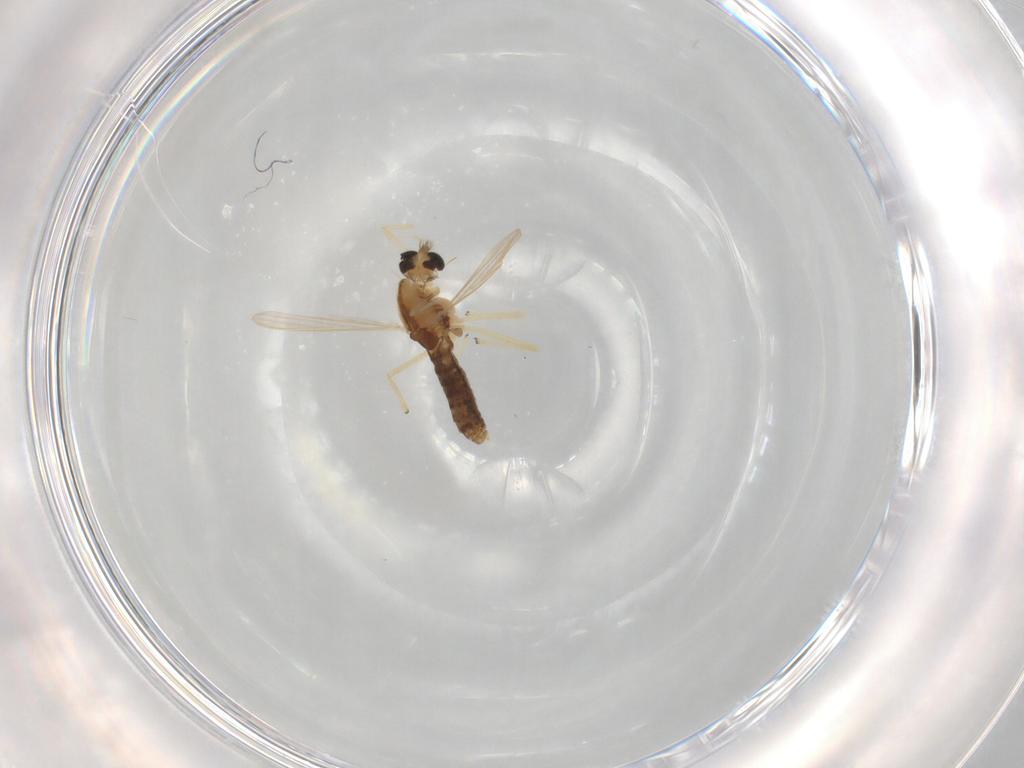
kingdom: Animalia
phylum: Arthropoda
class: Insecta
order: Diptera
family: Chironomidae
